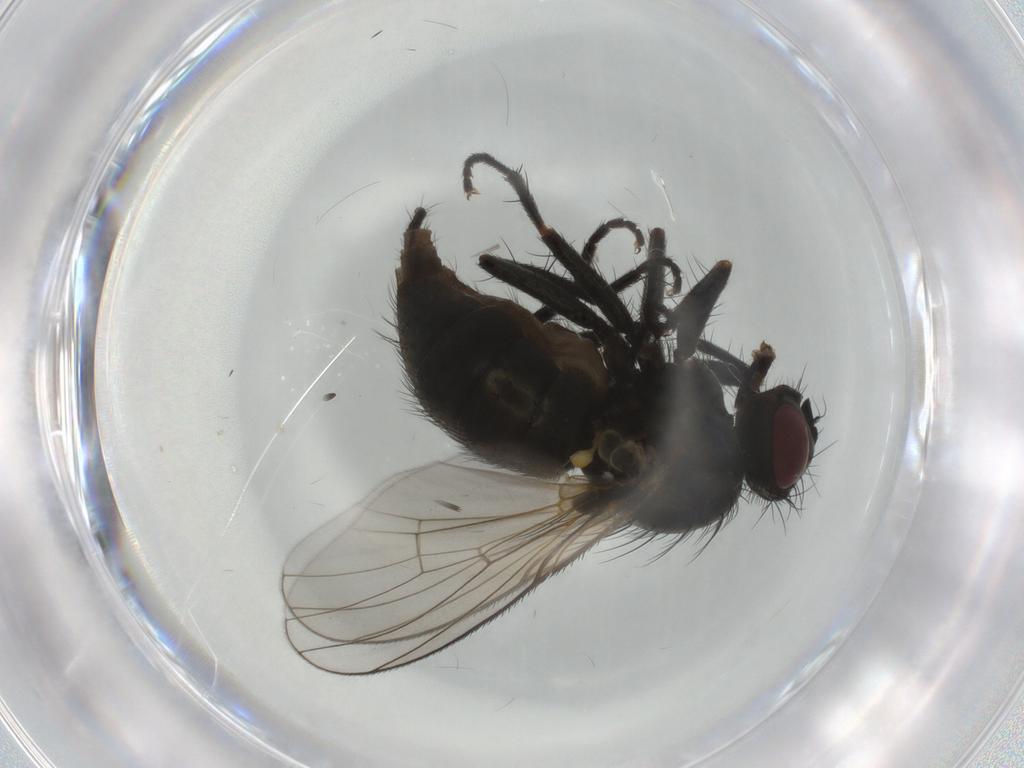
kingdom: Animalia
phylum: Arthropoda
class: Insecta
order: Diptera
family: Muscidae
